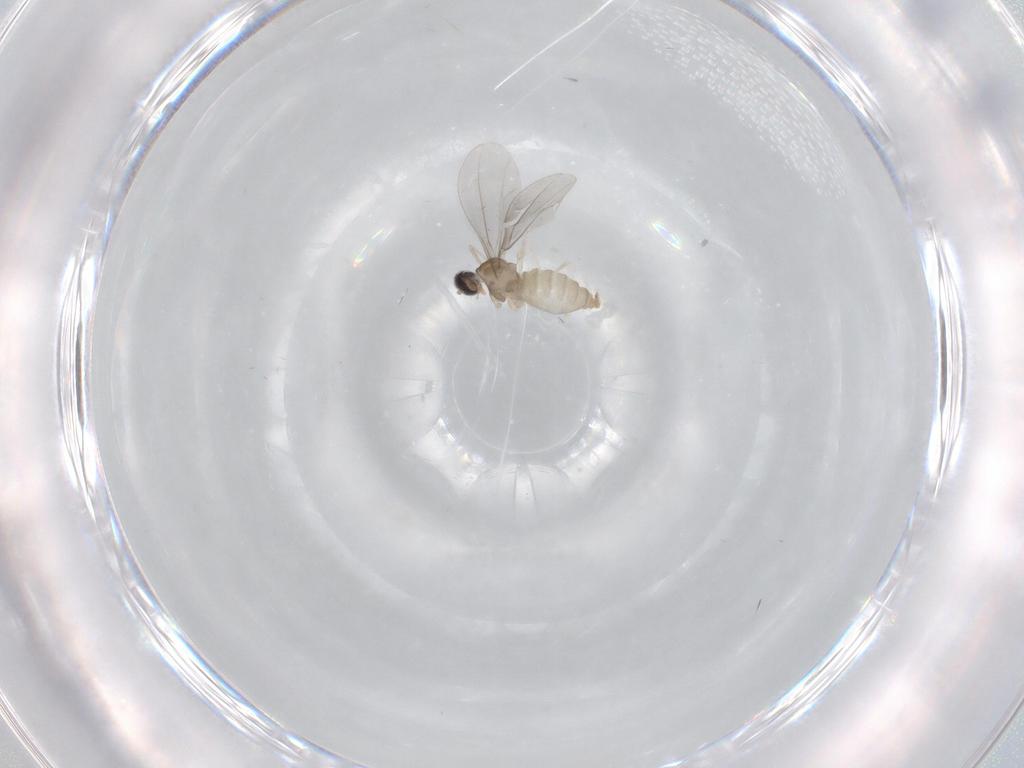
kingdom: Animalia
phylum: Arthropoda
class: Insecta
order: Diptera
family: Cecidomyiidae
